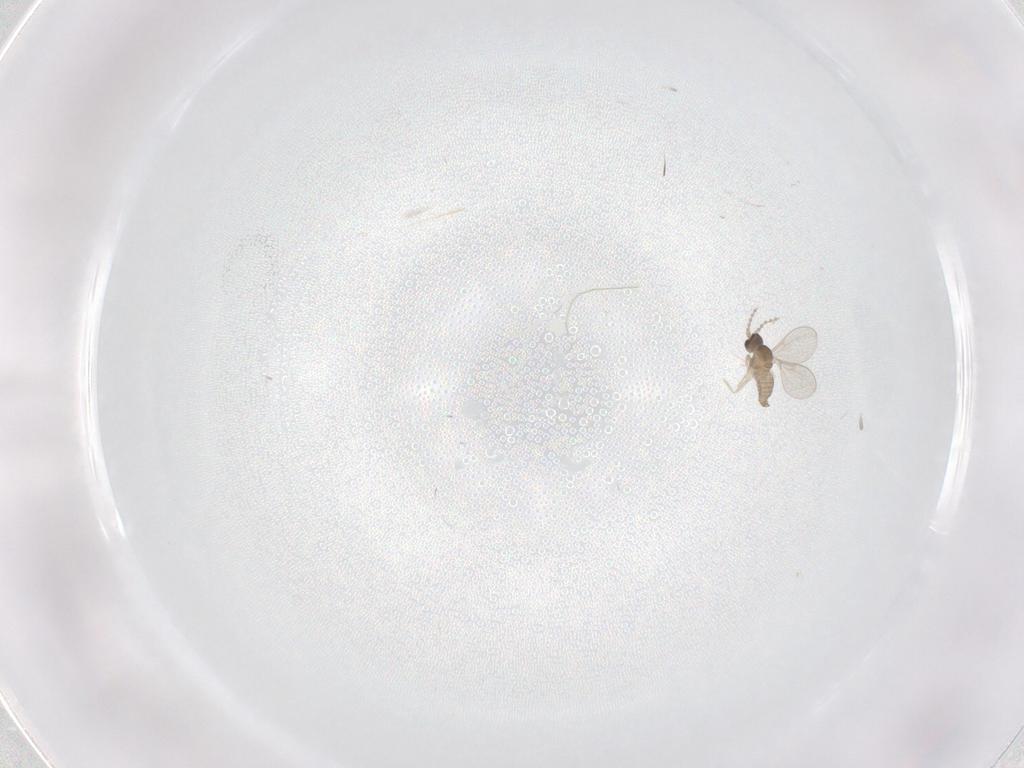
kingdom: Animalia
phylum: Arthropoda
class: Insecta
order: Diptera
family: Cecidomyiidae
